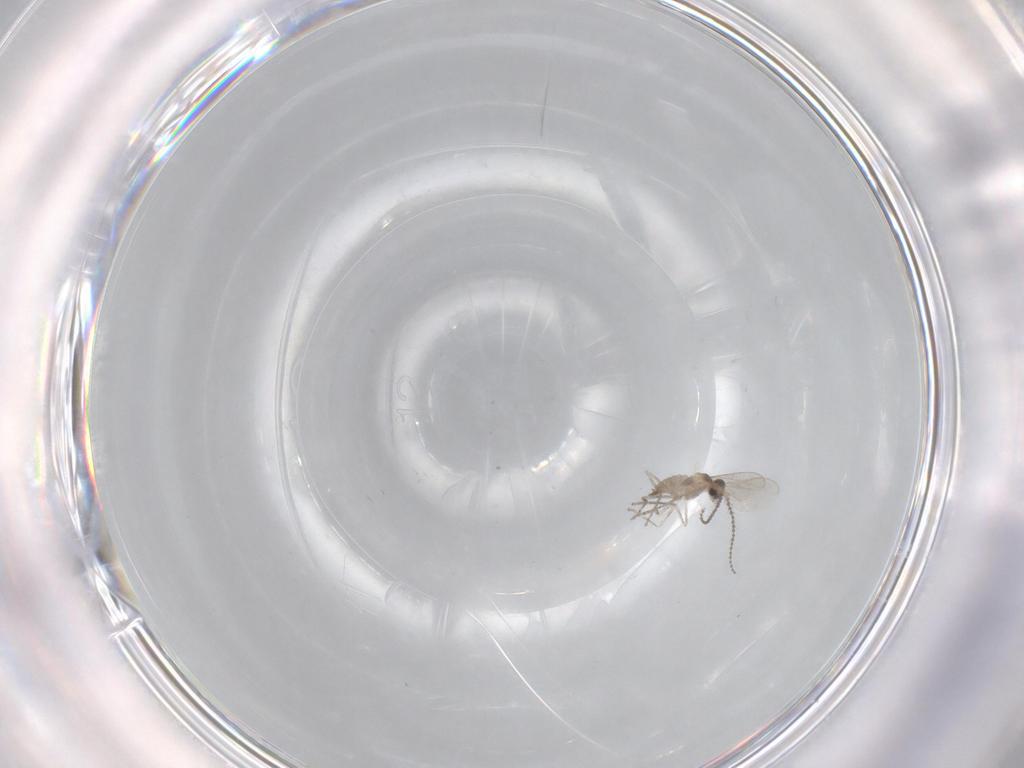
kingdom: Animalia
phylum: Arthropoda
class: Insecta
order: Diptera
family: Cecidomyiidae
